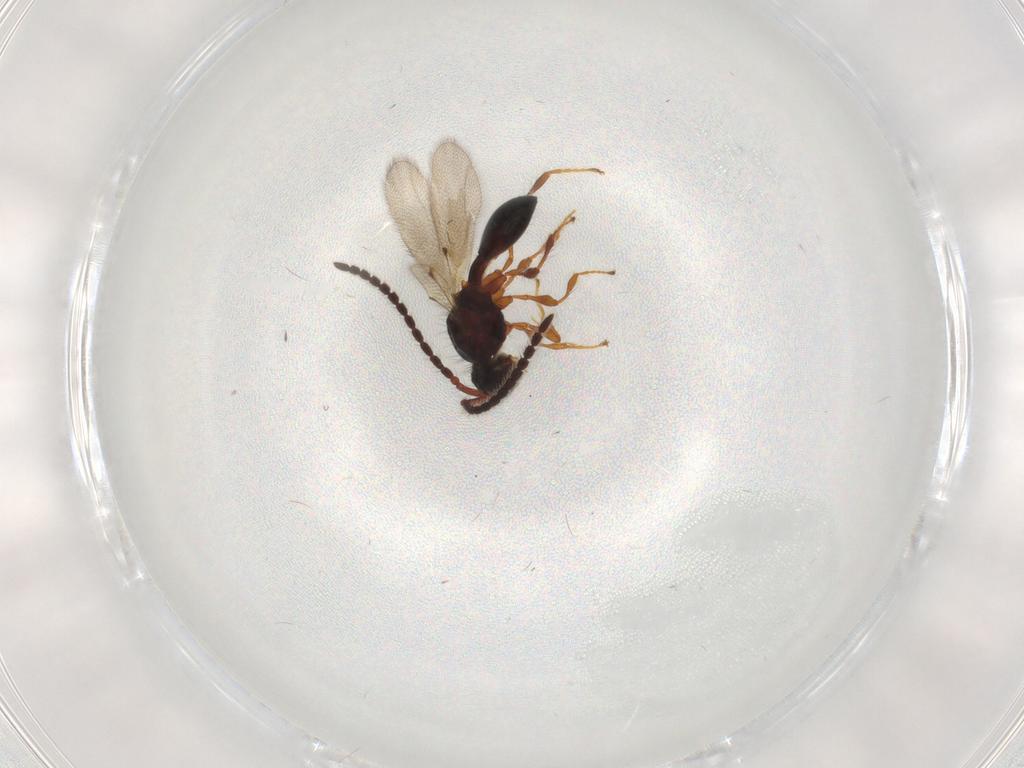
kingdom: Animalia
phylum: Arthropoda
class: Insecta
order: Hymenoptera
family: Diapriidae
